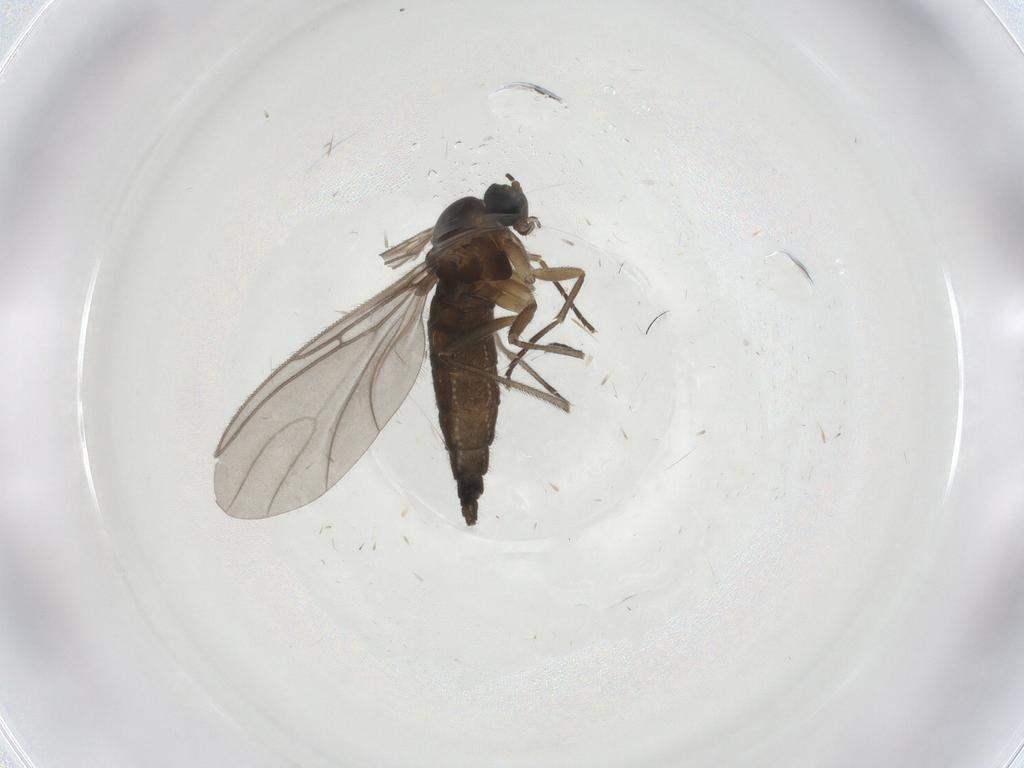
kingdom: Animalia
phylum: Arthropoda
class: Insecta
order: Diptera
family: Sciaridae
